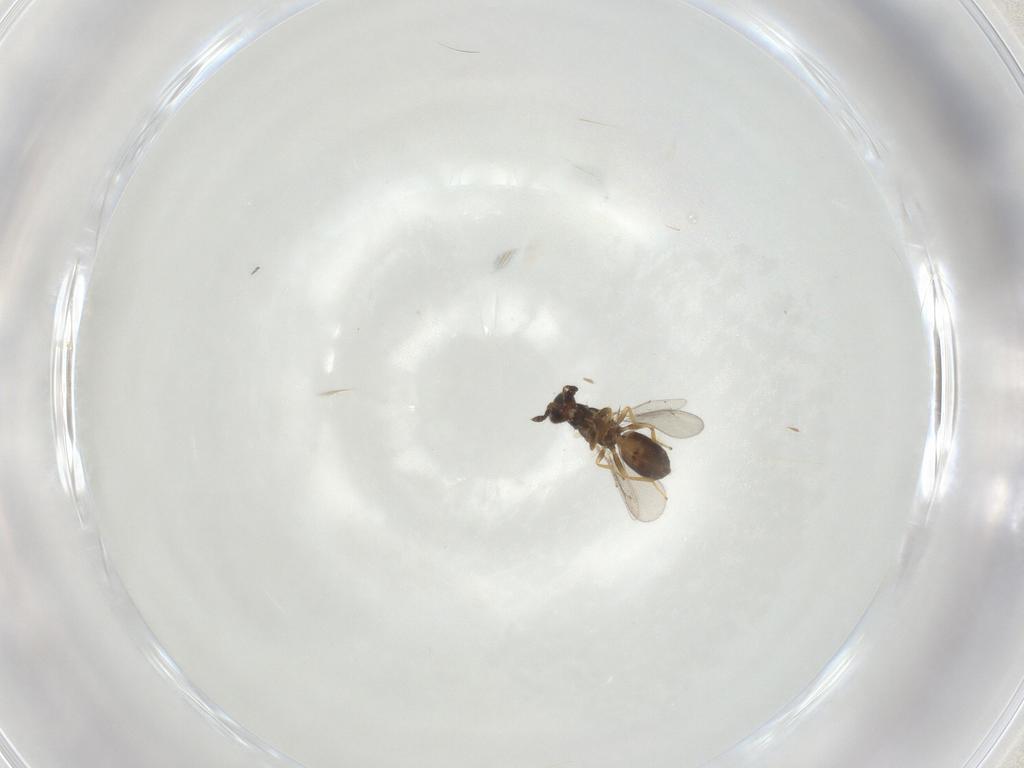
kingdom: Animalia
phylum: Arthropoda
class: Insecta
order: Hymenoptera
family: Eulophidae
